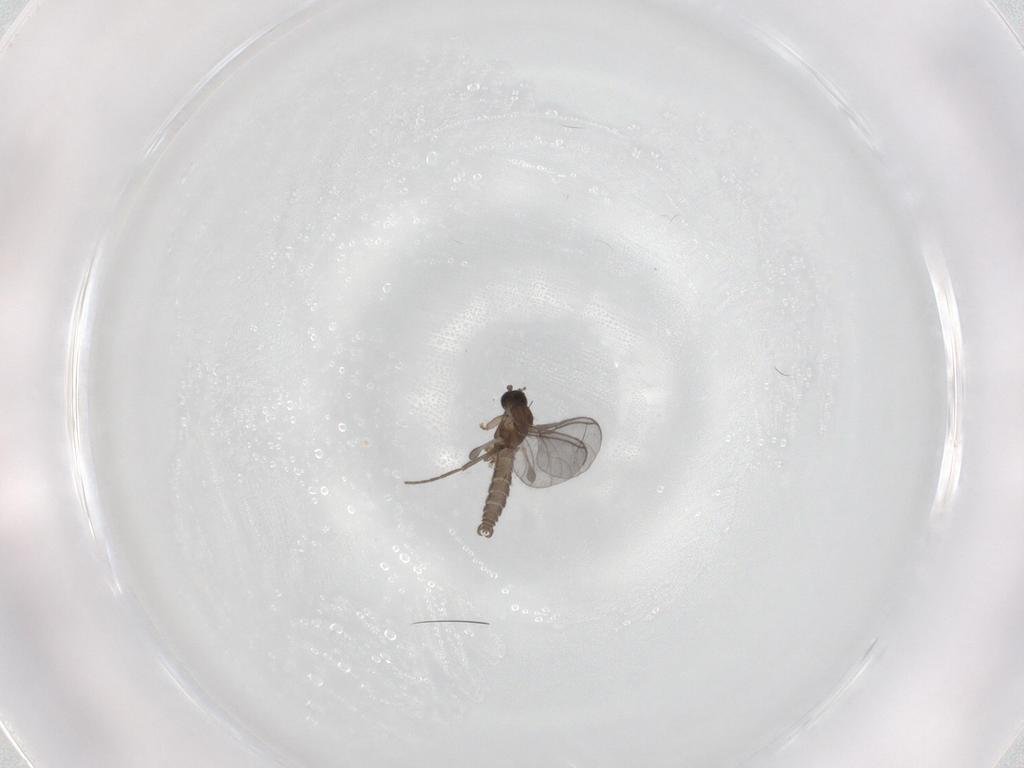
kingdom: Animalia
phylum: Arthropoda
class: Insecta
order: Diptera
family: Sciaridae
